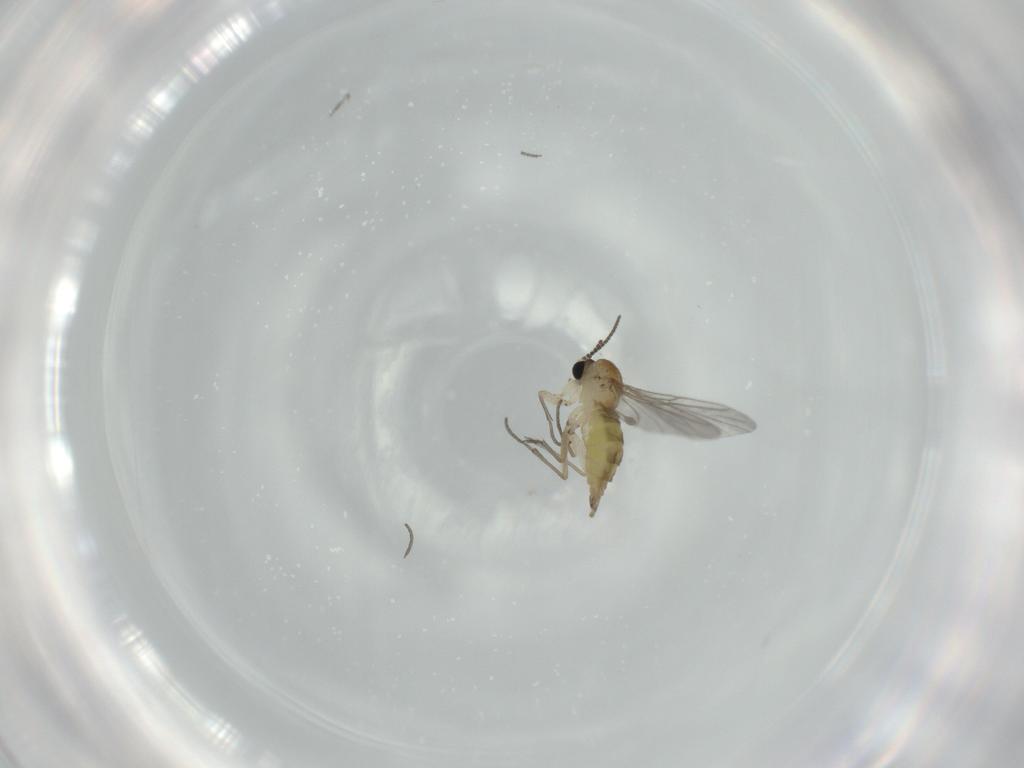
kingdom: Animalia
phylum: Arthropoda
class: Insecta
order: Diptera
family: Sciaridae
